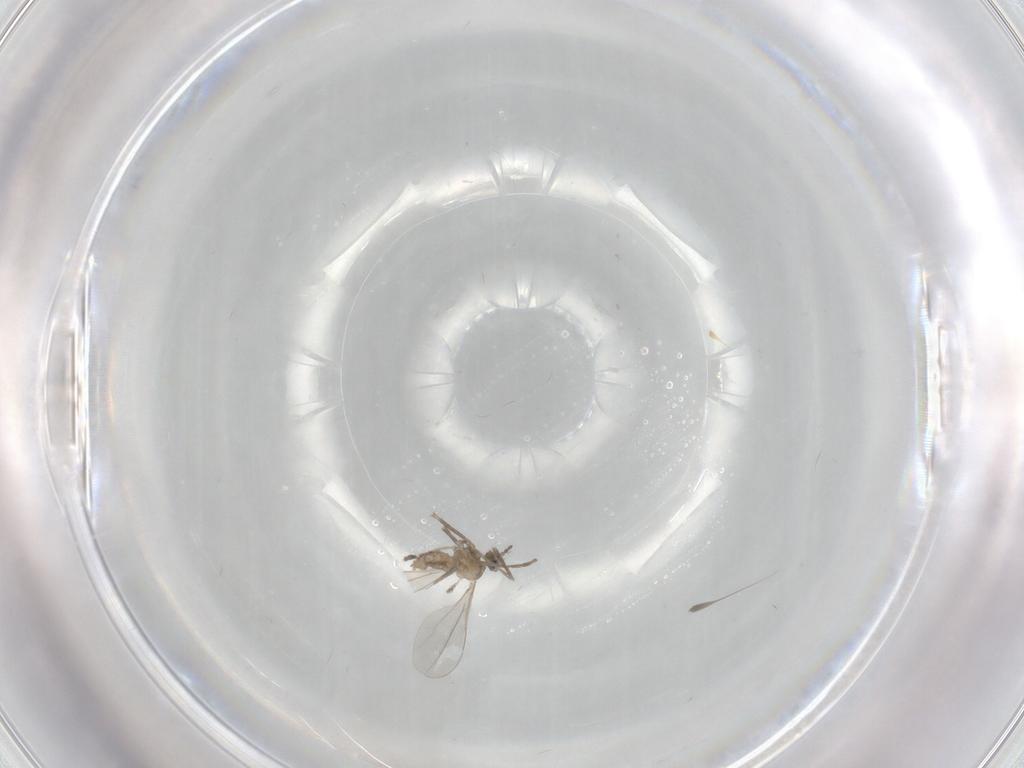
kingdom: Animalia
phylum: Arthropoda
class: Insecta
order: Diptera
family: Cecidomyiidae
